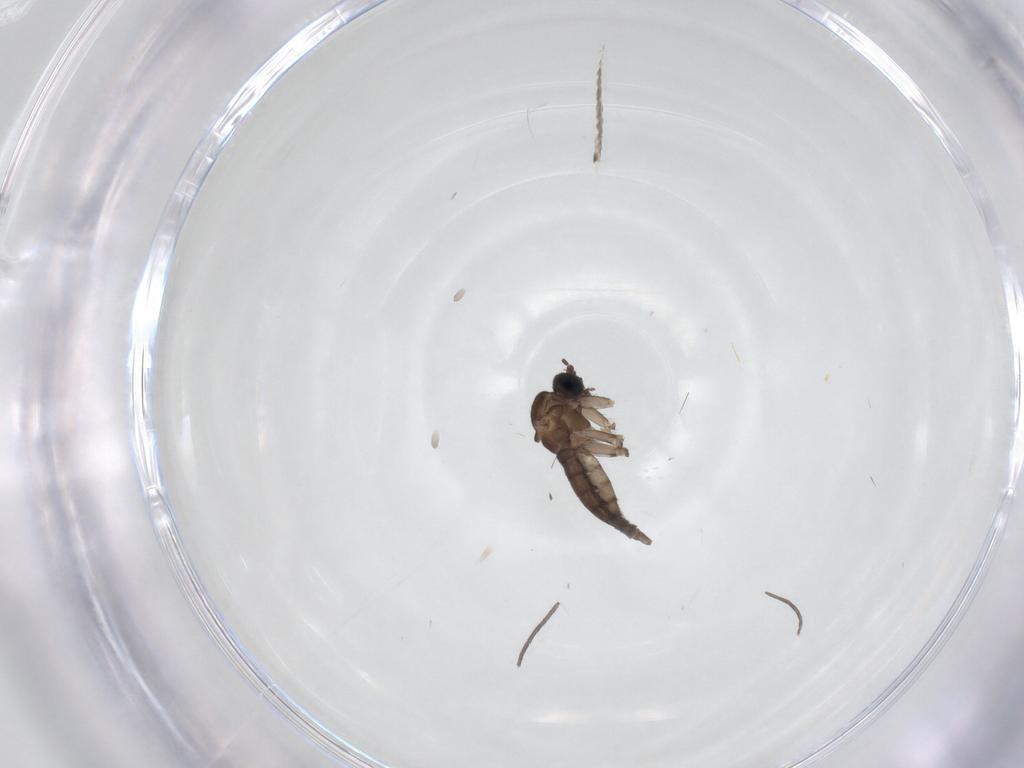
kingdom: Animalia
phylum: Arthropoda
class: Insecta
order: Diptera
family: Sciaridae
